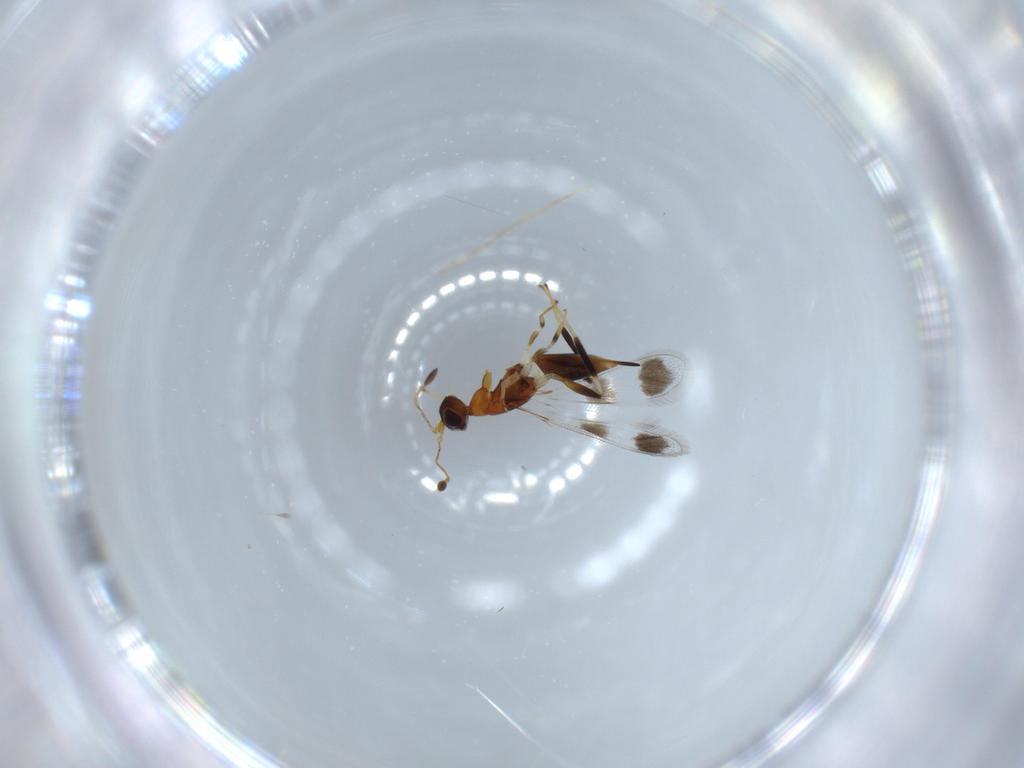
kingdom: Animalia
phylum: Arthropoda
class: Insecta
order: Hymenoptera
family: Mymaridae
